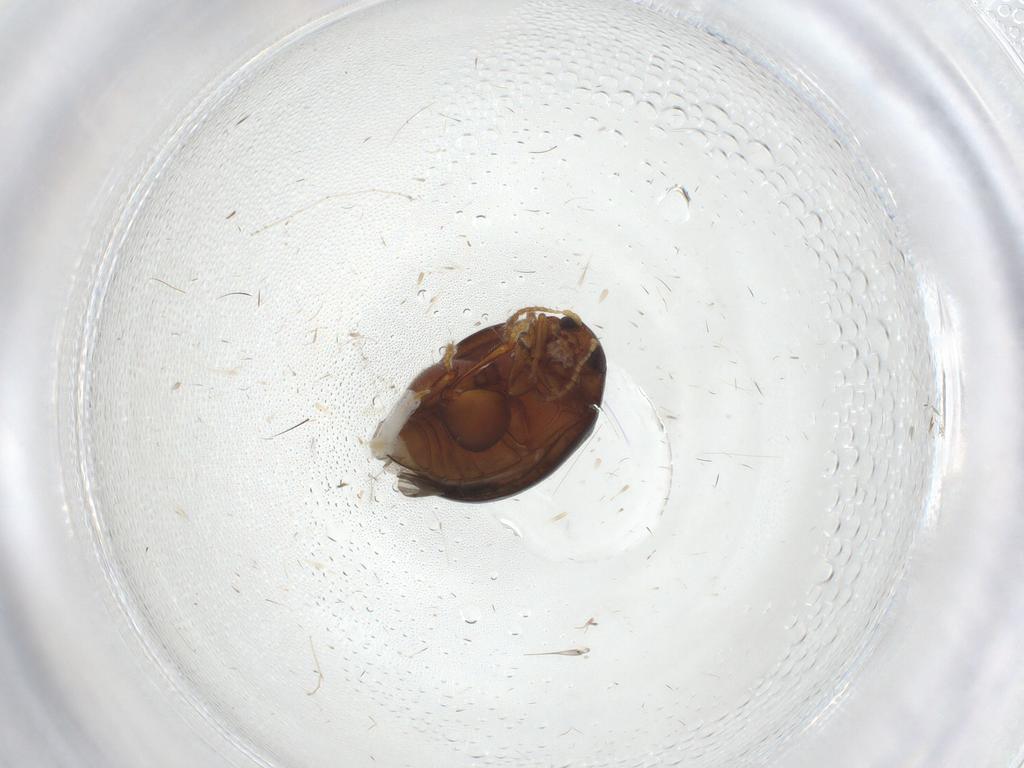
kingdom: Animalia
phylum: Arthropoda
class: Insecta
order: Coleoptera
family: Chrysomelidae
